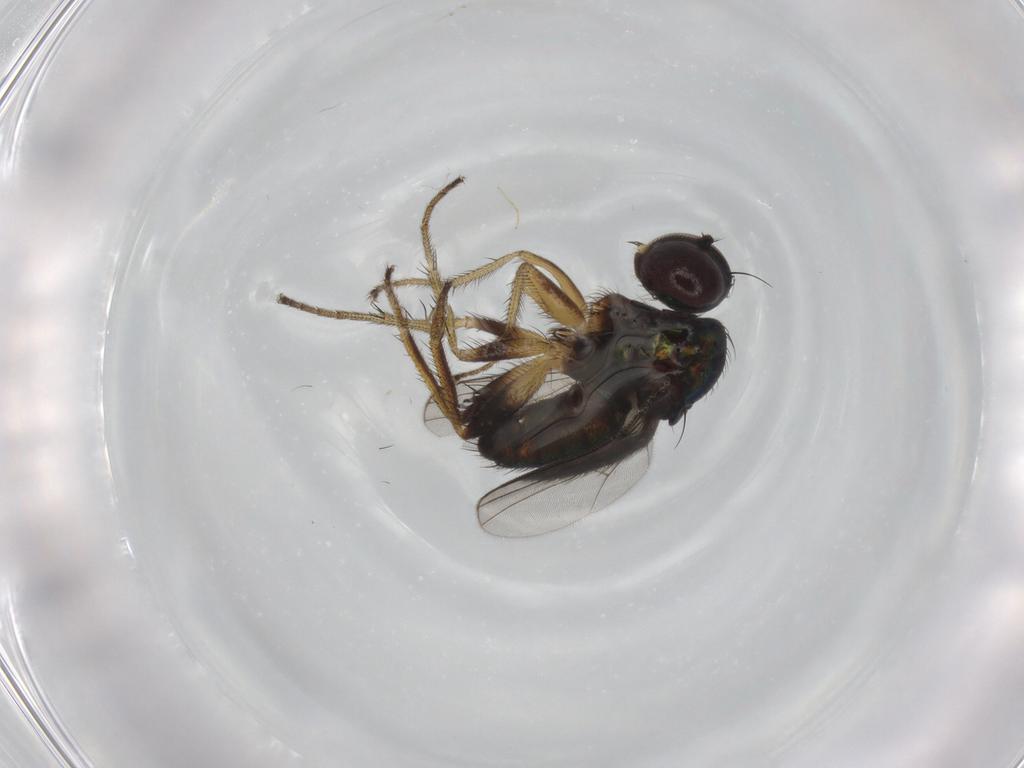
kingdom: Animalia
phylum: Arthropoda
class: Insecta
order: Diptera
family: Dolichopodidae
